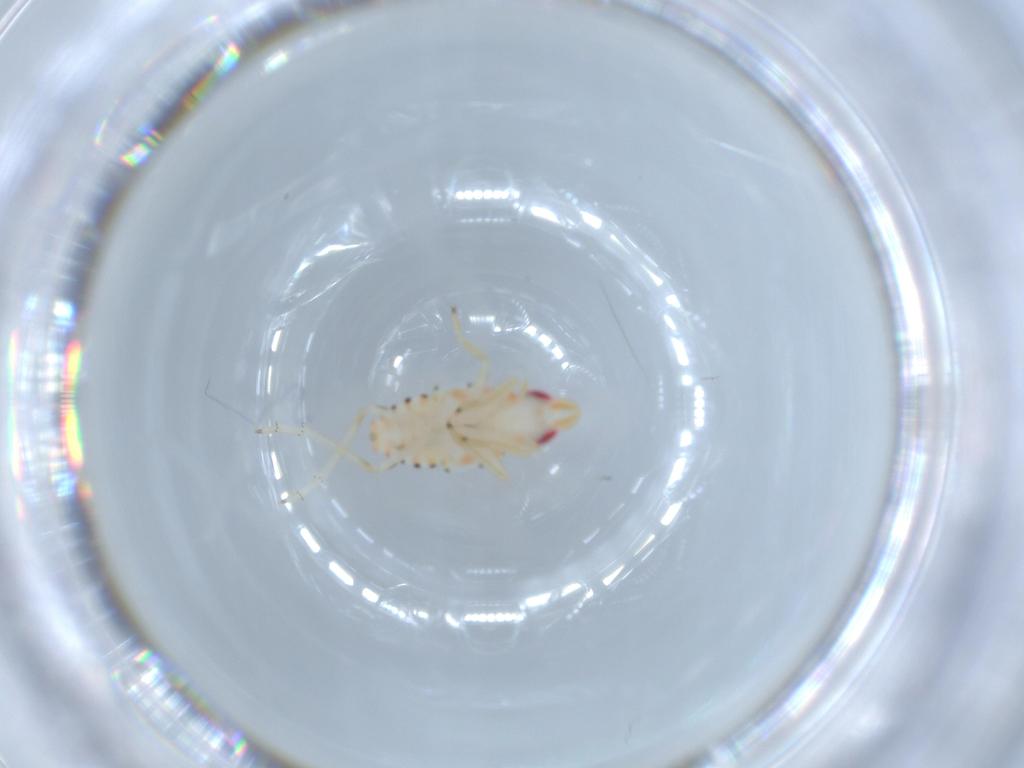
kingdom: Animalia
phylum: Arthropoda
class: Insecta
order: Hemiptera
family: Tropiduchidae
